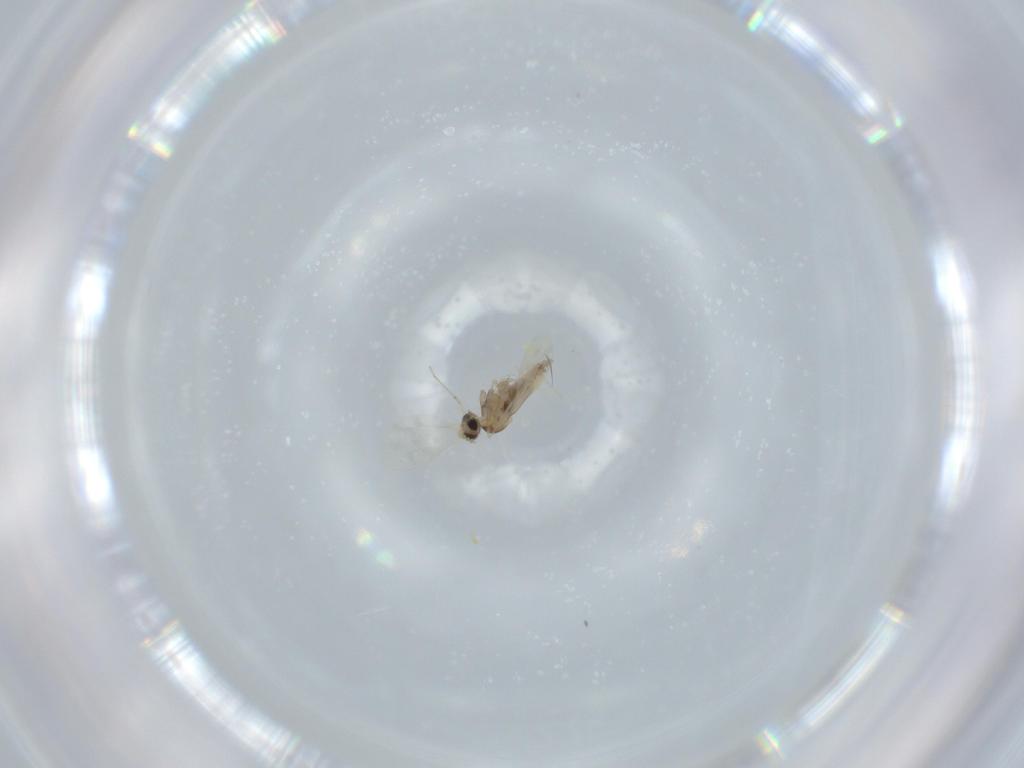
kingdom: Animalia
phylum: Arthropoda
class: Insecta
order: Diptera
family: Cecidomyiidae
